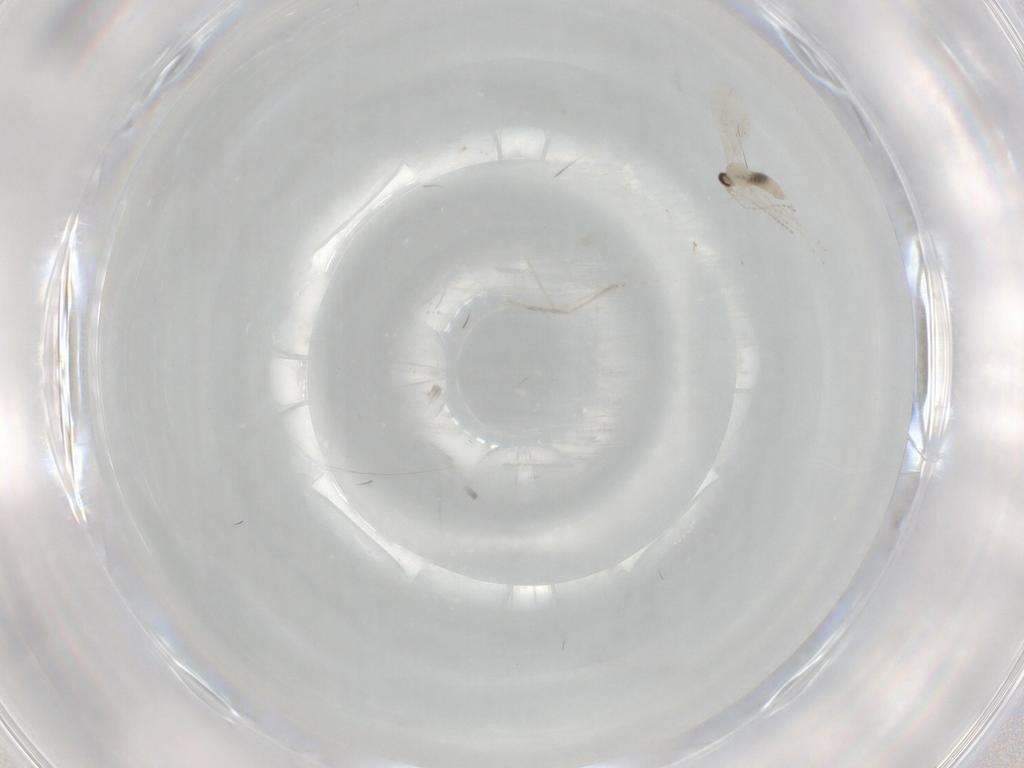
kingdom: Animalia
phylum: Arthropoda
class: Insecta
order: Diptera
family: Cecidomyiidae
